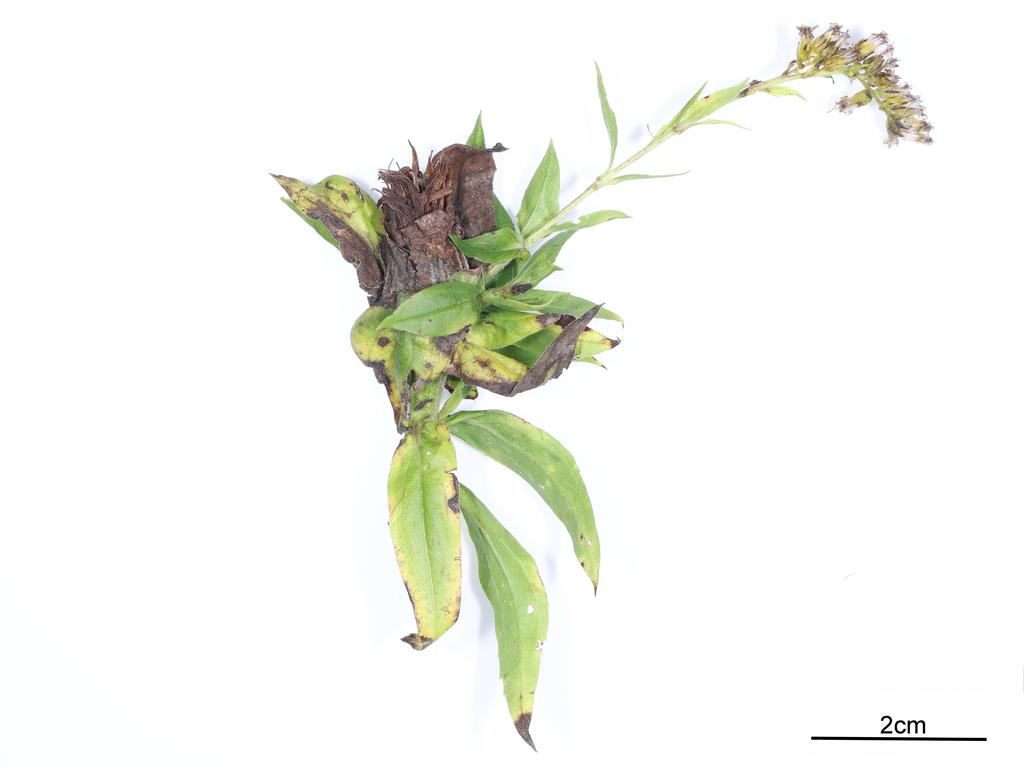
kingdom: Animalia
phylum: Arthropoda
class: Insecta
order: Hymenoptera
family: Torymidae
